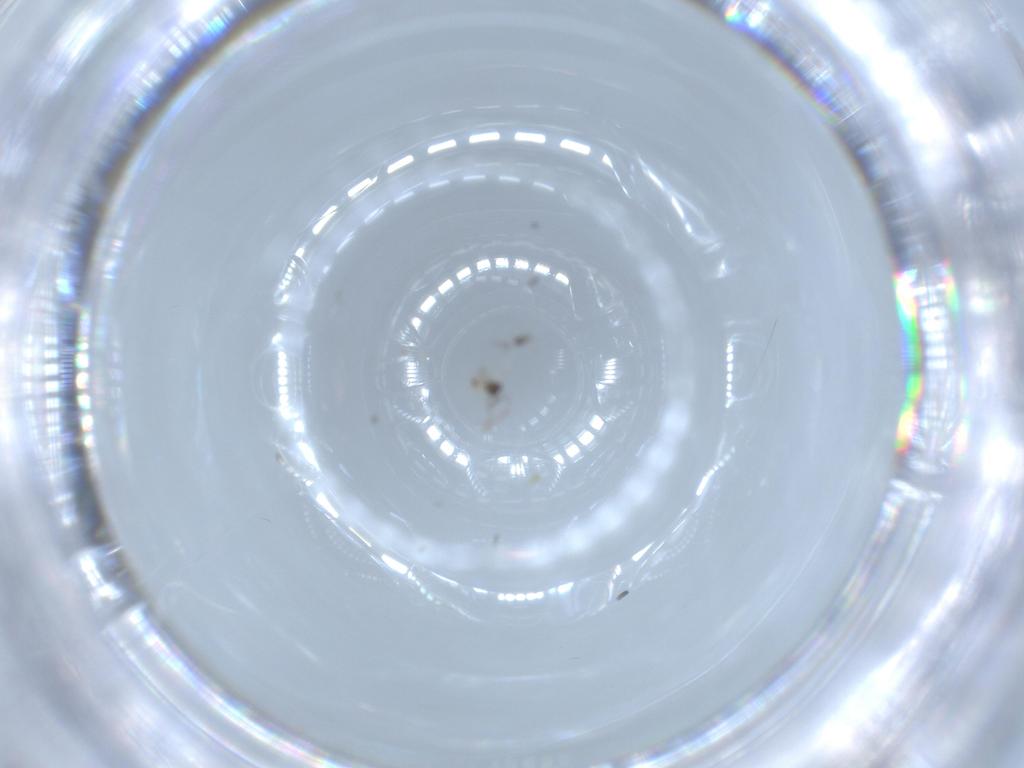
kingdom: Animalia
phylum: Arthropoda
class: Insecta
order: Hymenoptera
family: Mymaridae
